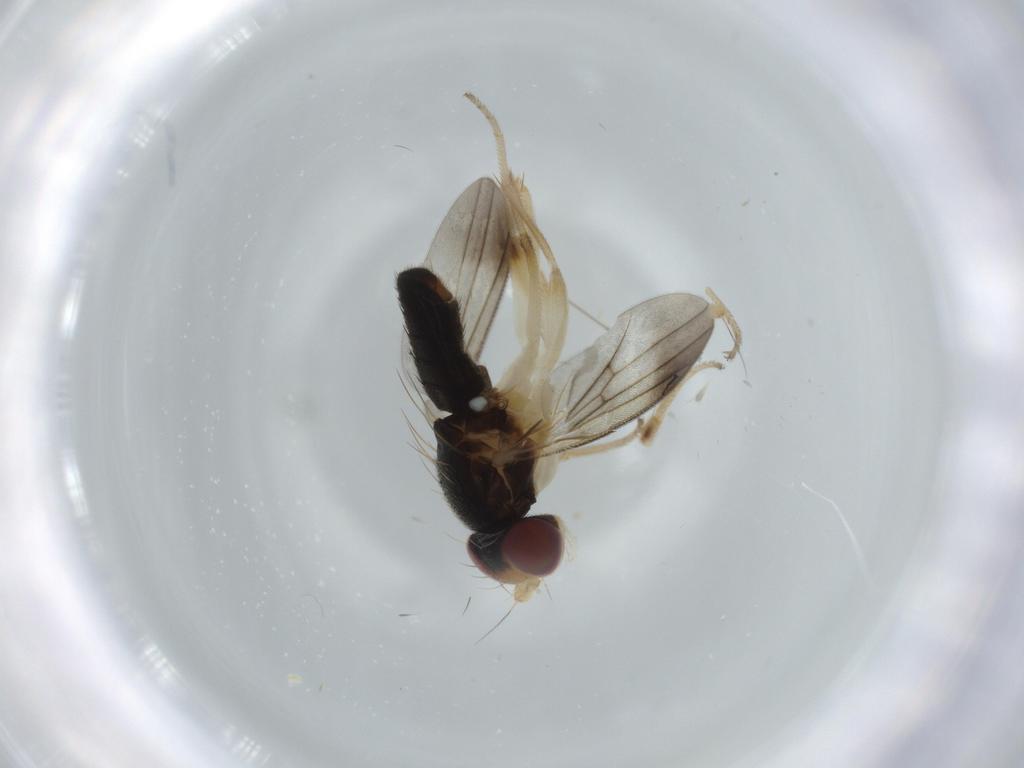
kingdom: Animalia
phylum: Arthropoda
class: Insecta
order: Diptera
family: Clusiidae
